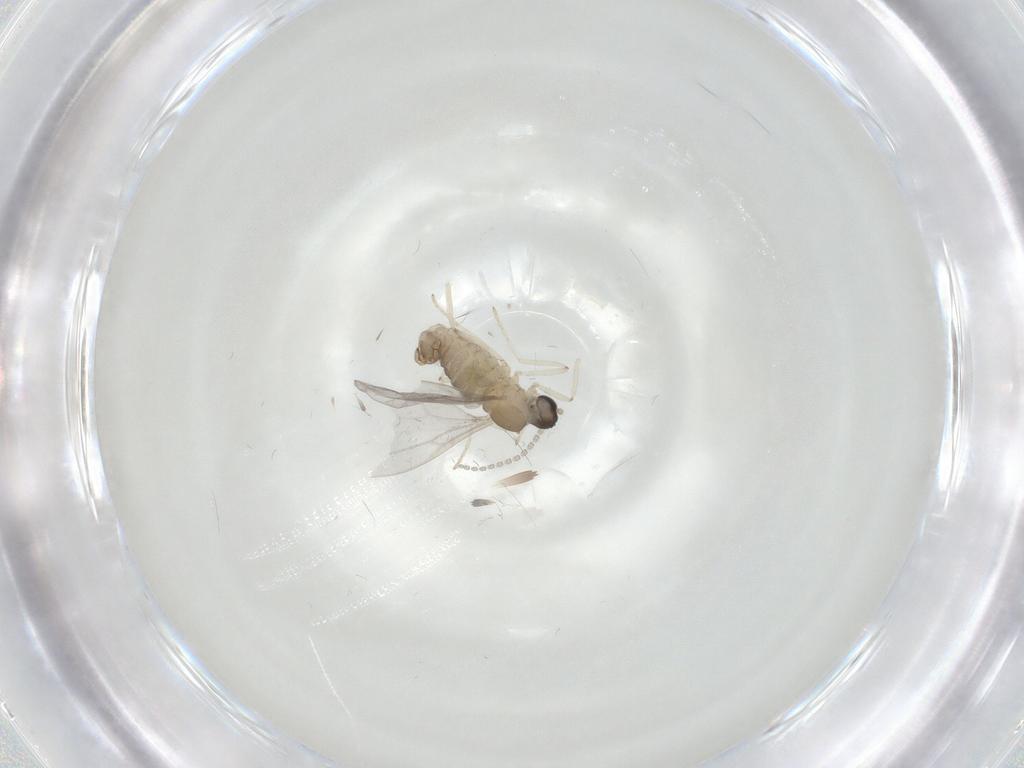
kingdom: Animalia
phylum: Arthropoda
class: Insecta
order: Diptera
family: Cecidomyiidae
